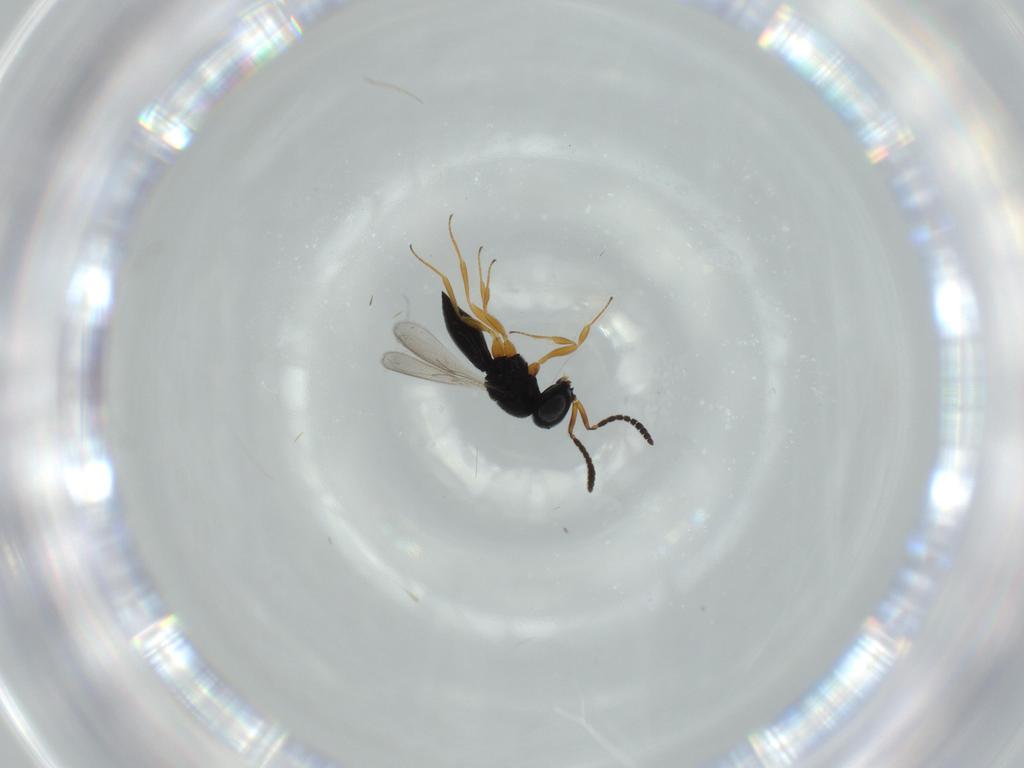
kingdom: Animalia
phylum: Arthropoda
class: Insecta
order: Hymenoptera
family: Scelionidae
